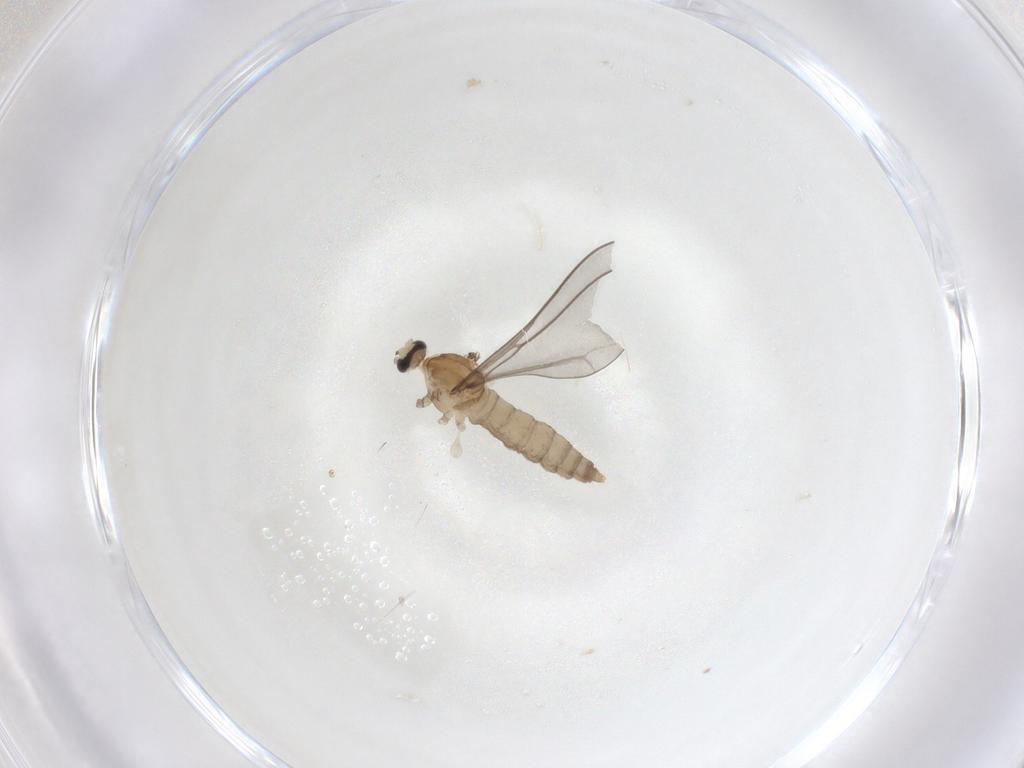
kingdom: Animalia
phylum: Arthropoda
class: Insecta
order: Diptera
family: Cecidomyiidae
